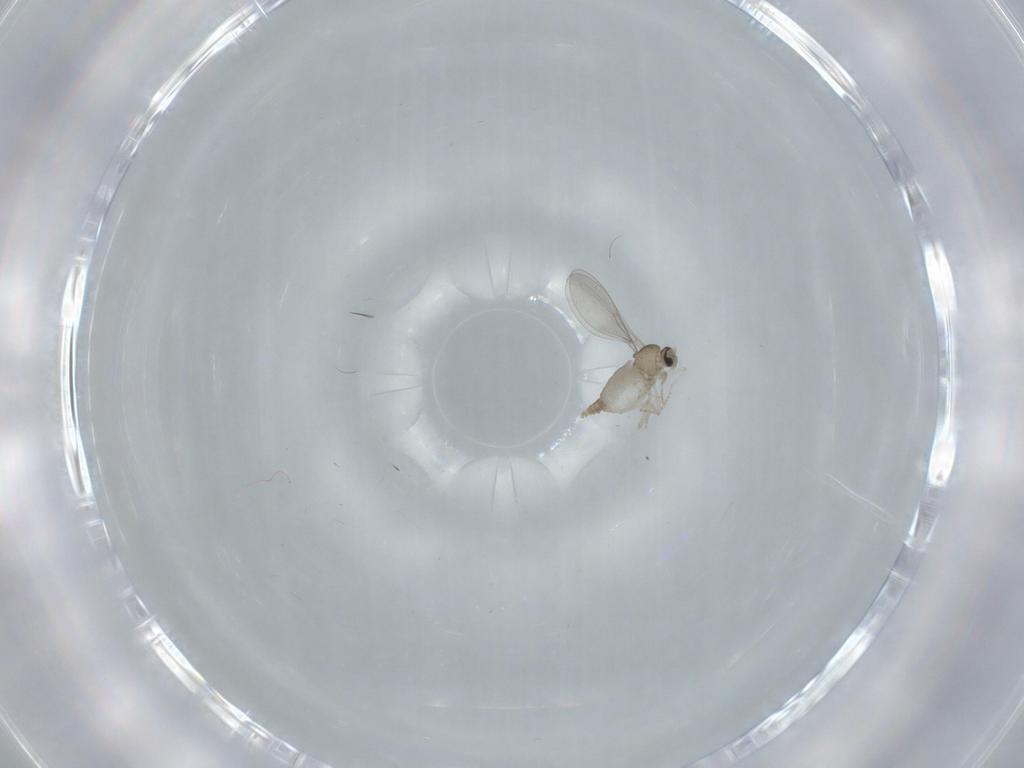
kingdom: Animalia
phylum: Arthropoda
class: Insecta
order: Diptera
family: Cecidomyiidae
